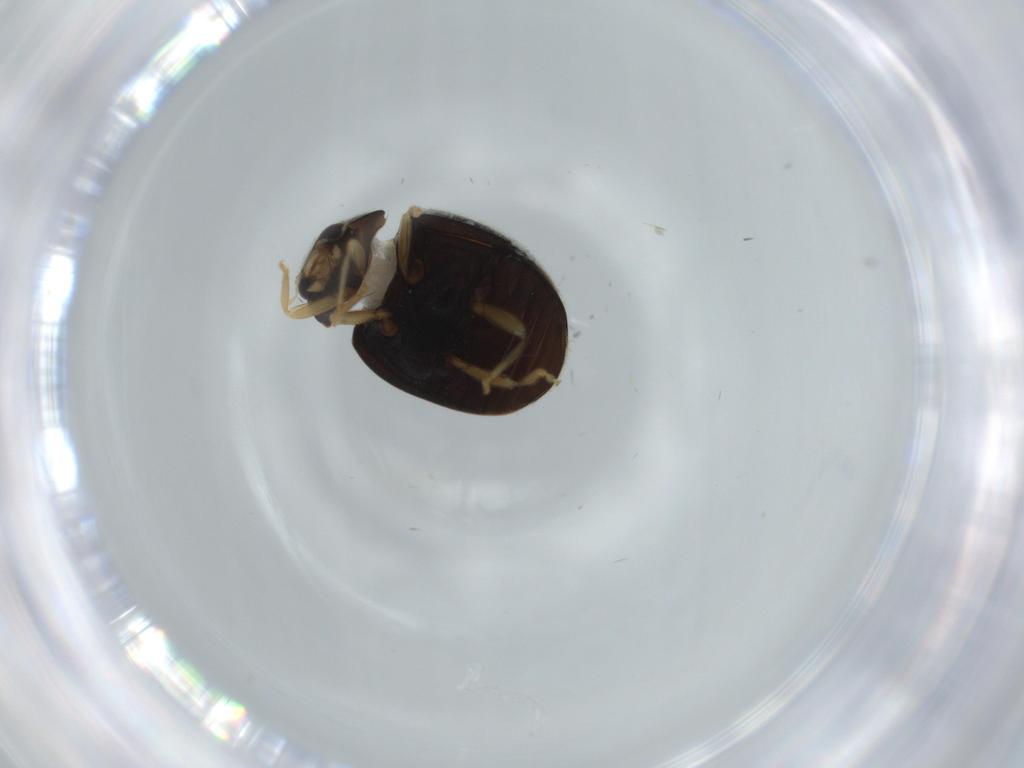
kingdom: Animalia
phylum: Arthropoda
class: Insecta
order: Coleoptera
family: Coccinellidae
